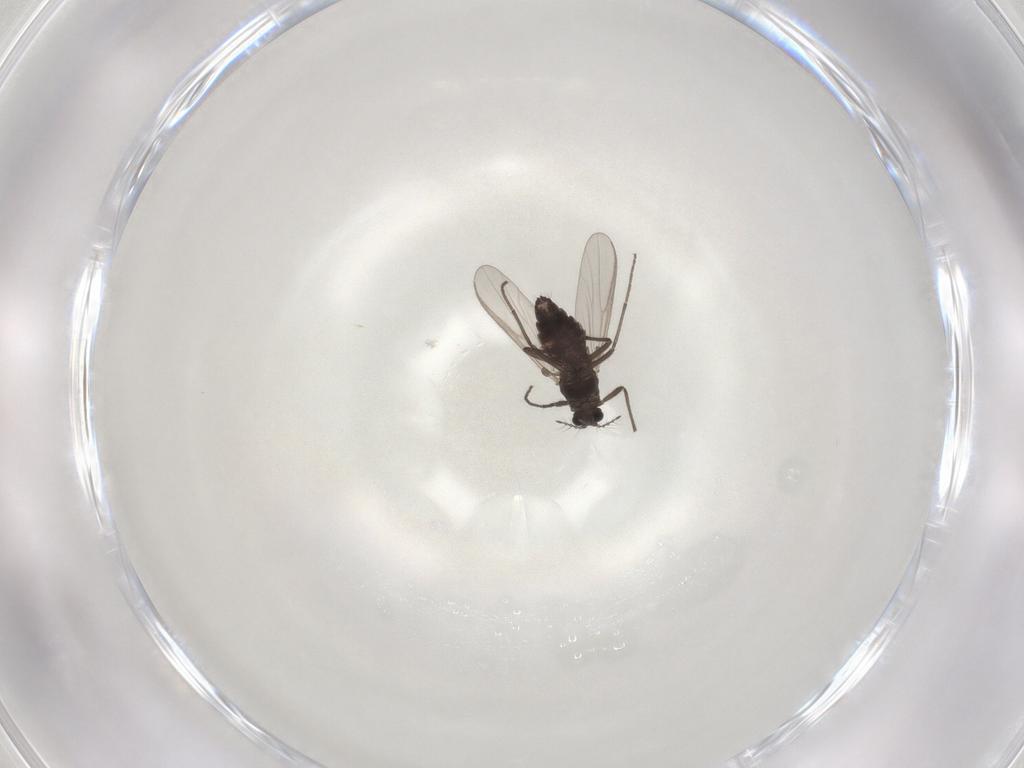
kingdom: Animalia
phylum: Arthropoda
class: Insecta
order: Diptera
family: Chironomidae
